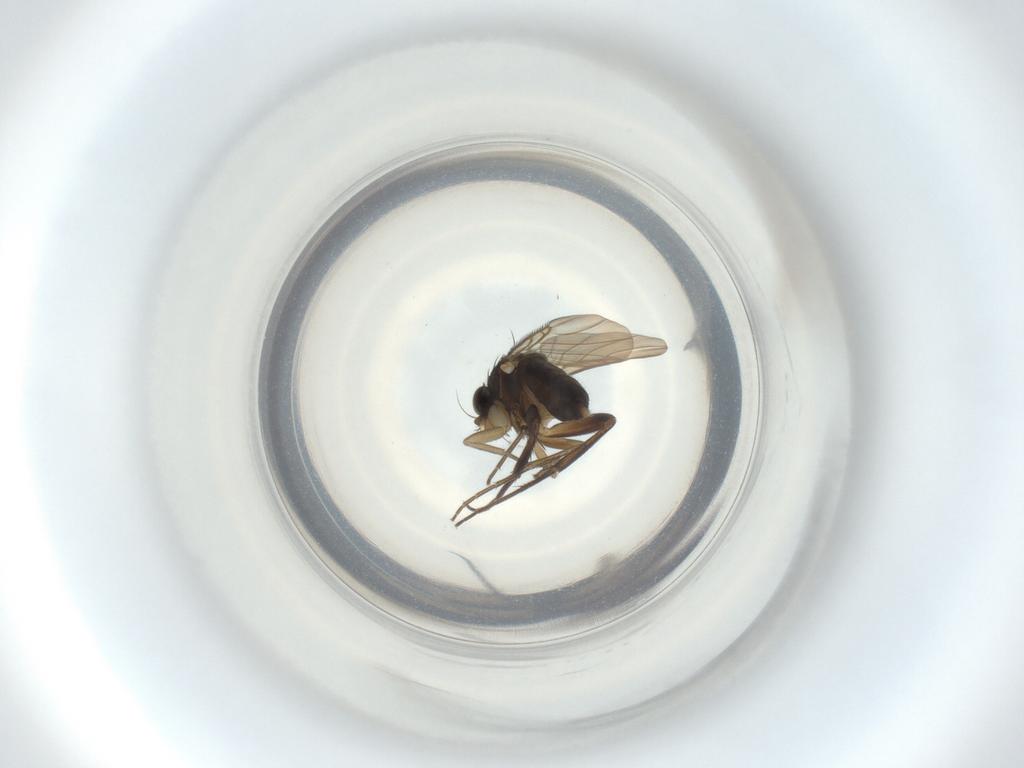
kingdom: Animalia
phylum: Arthropoda
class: Insecta
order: Diptera
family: Phoridae
